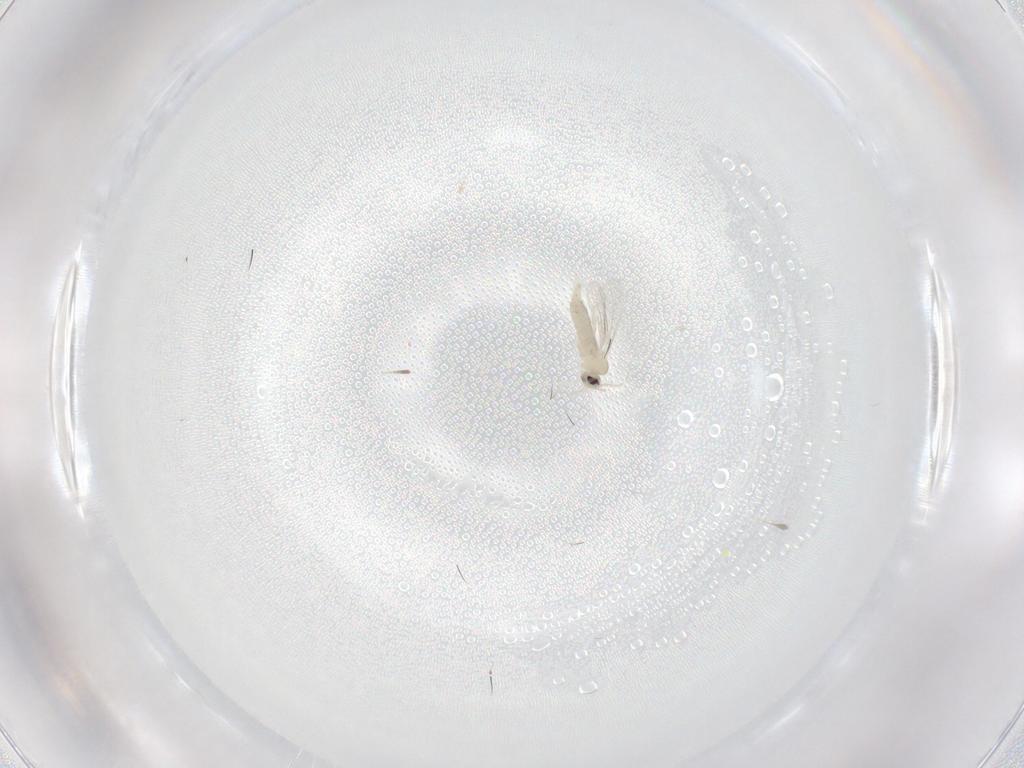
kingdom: Animalia
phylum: Arthropoda
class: Insecta
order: Diptera
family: Cecidomyiidae
